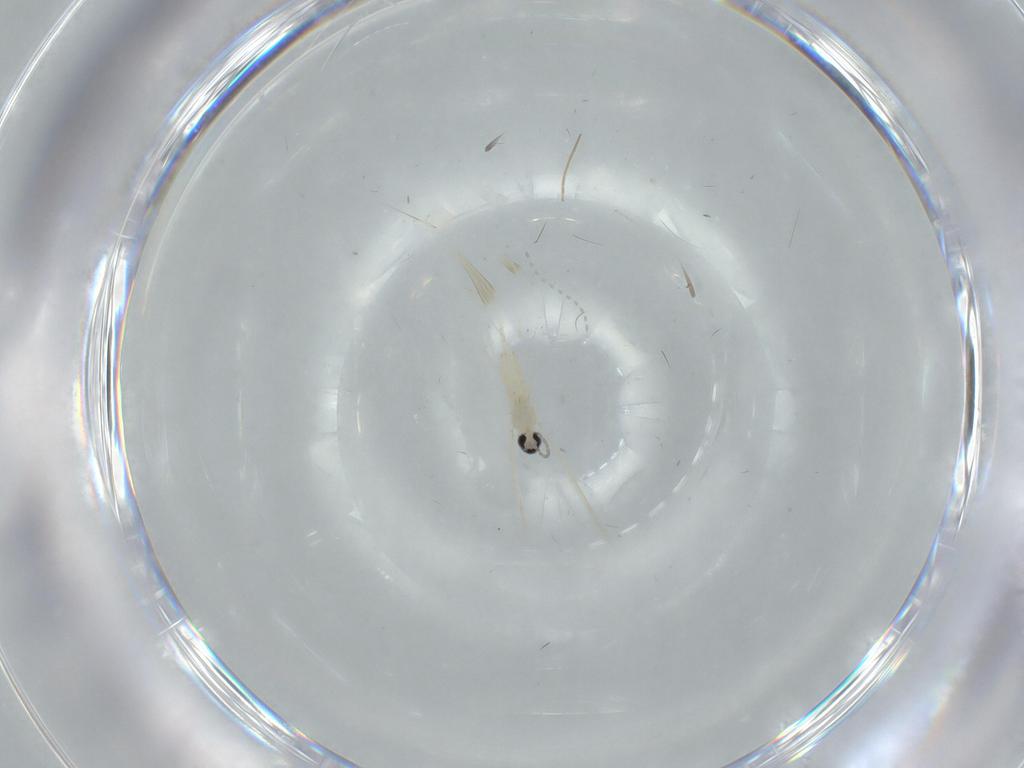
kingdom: Animalia
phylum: Arthropoda
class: Insecta
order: Diptera
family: Cecidomyiidae
